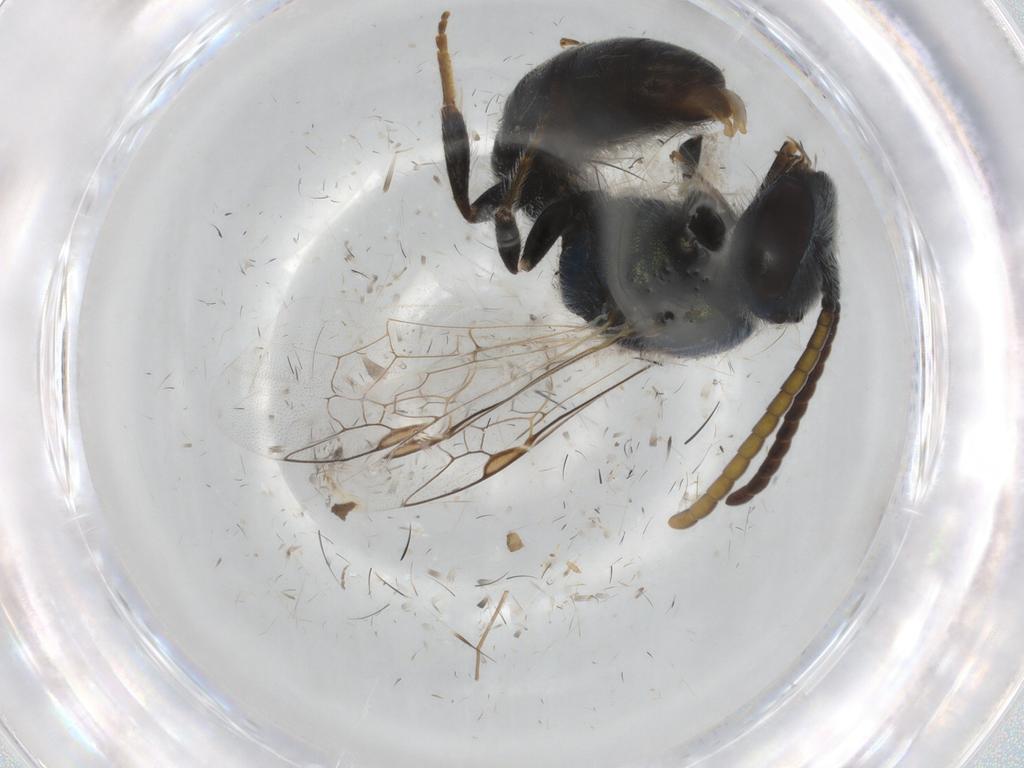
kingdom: Animalia
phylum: Arthropoda
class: Insecta
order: Hymenoptera
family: Halictidae
